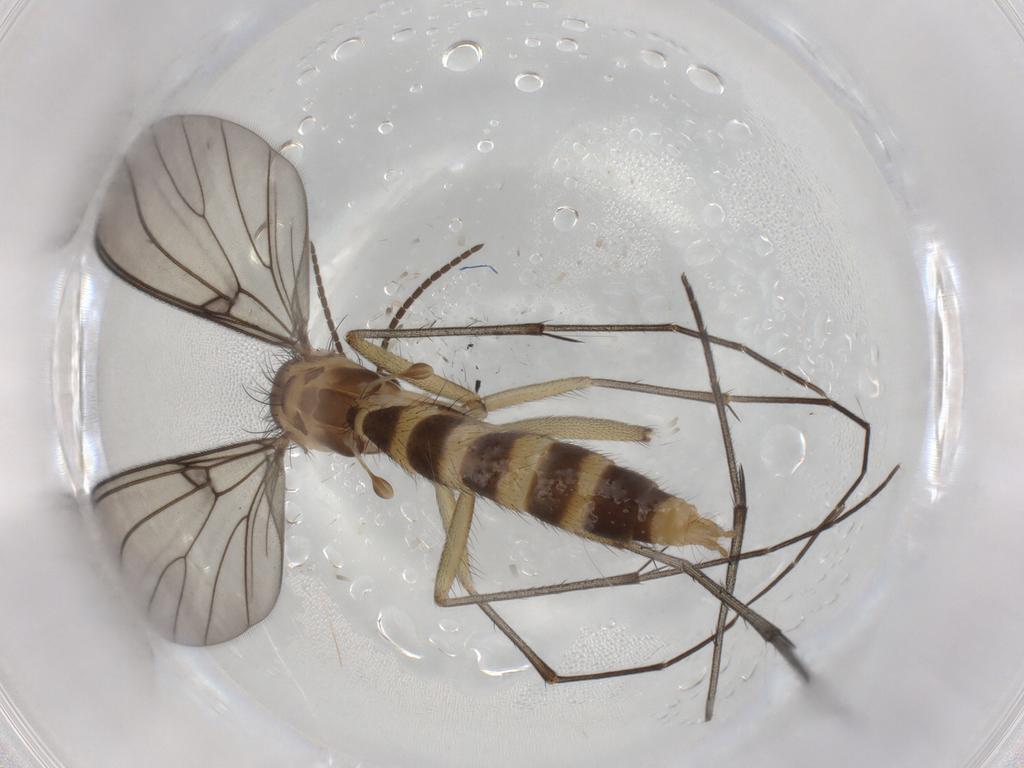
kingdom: Animalia
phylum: Arthropoda
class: Insecta
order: Diptera
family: Mycetophilidae
